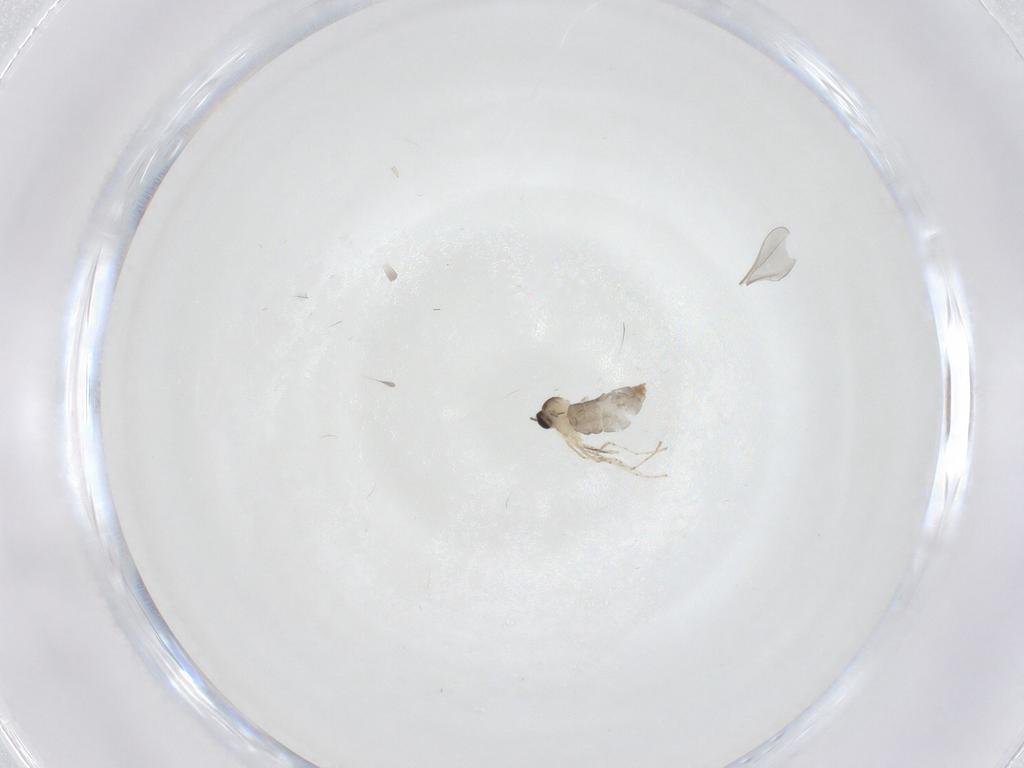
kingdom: Animalia
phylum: Arthropoda
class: Insecta
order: Diptera
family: Cecidomyiidae
